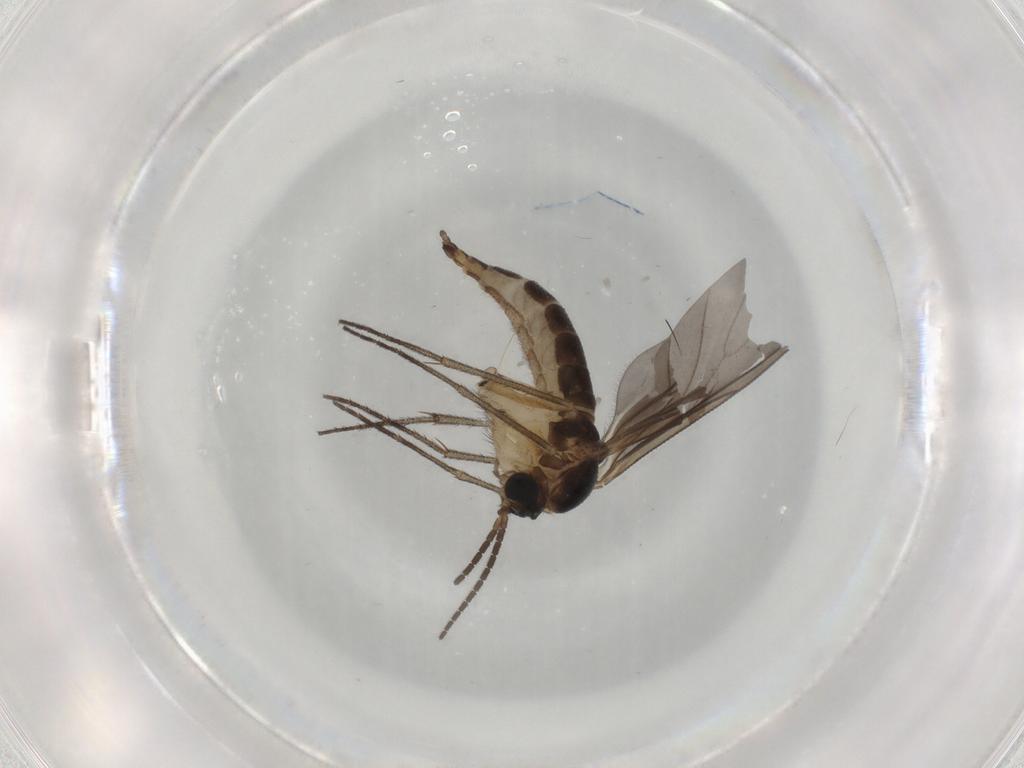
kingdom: Animalia
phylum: Arthropoda
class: Insecta
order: Diptera
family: Sciaridae
